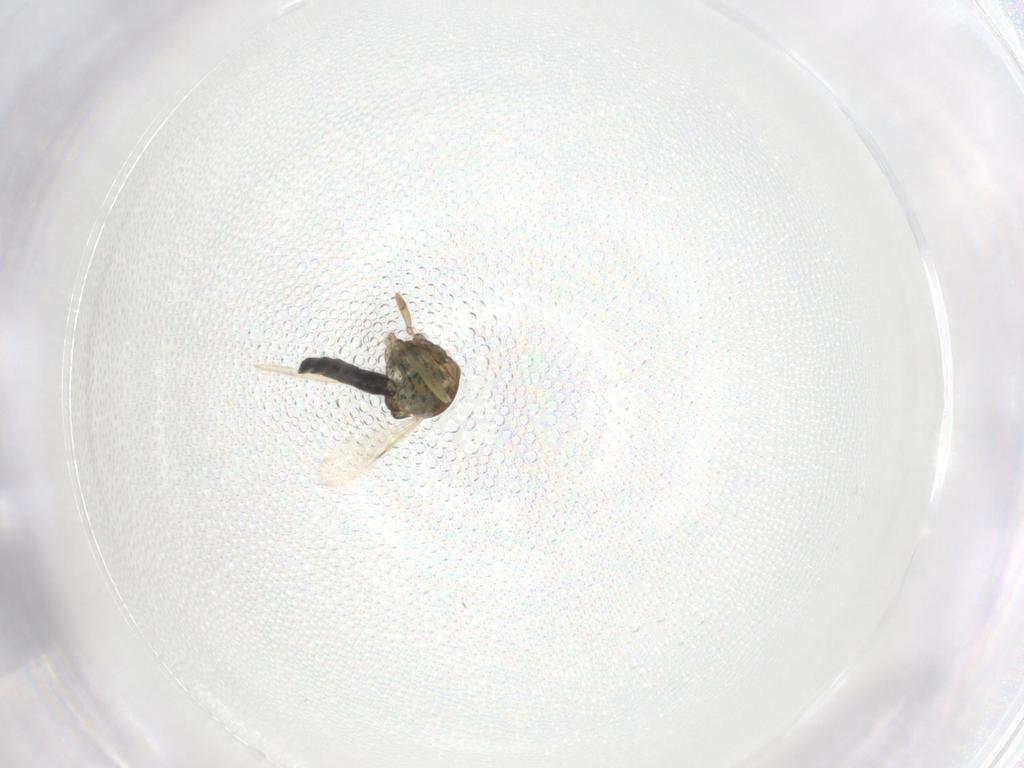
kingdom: Animalia
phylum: Arthropoda
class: Insecta
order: Diptera
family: Ceratopogonidae
